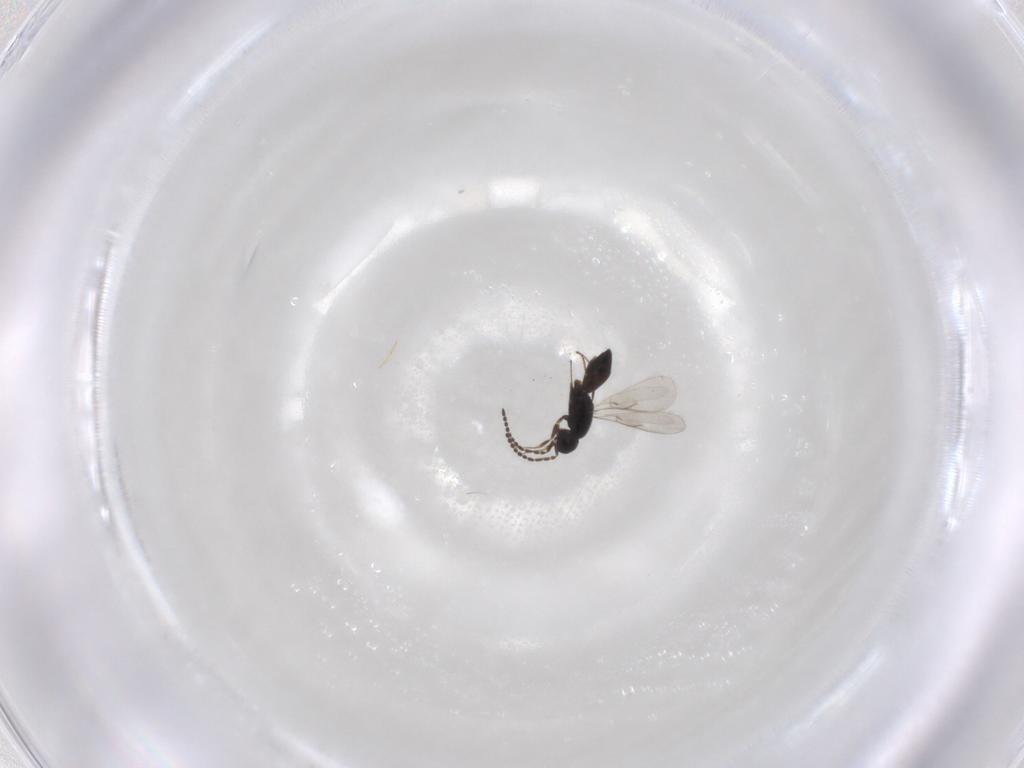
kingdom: Animalia
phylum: Arthropoda
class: Insecta
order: Hymenoptera
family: Scelionidae
